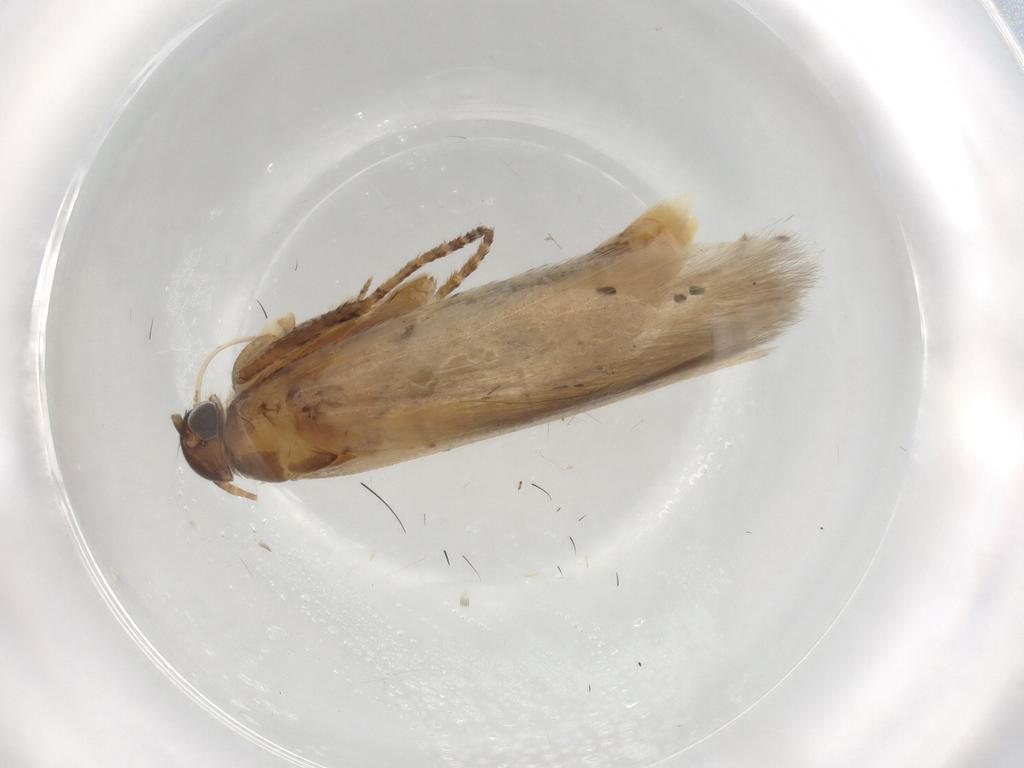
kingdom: Animalia
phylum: Arthropoda
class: Insecta
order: Lepidoptera
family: Gelechiidae
